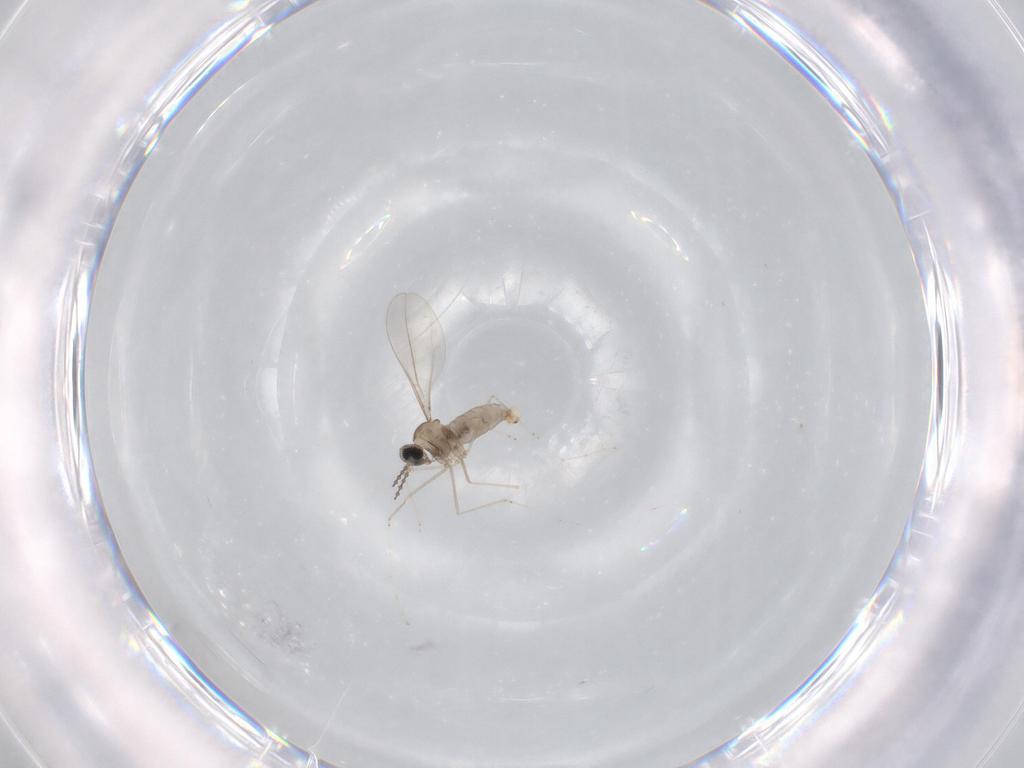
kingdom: Animalia
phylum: Arthropoda
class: Insecta
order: Diptera
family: Cecidomyiidae
